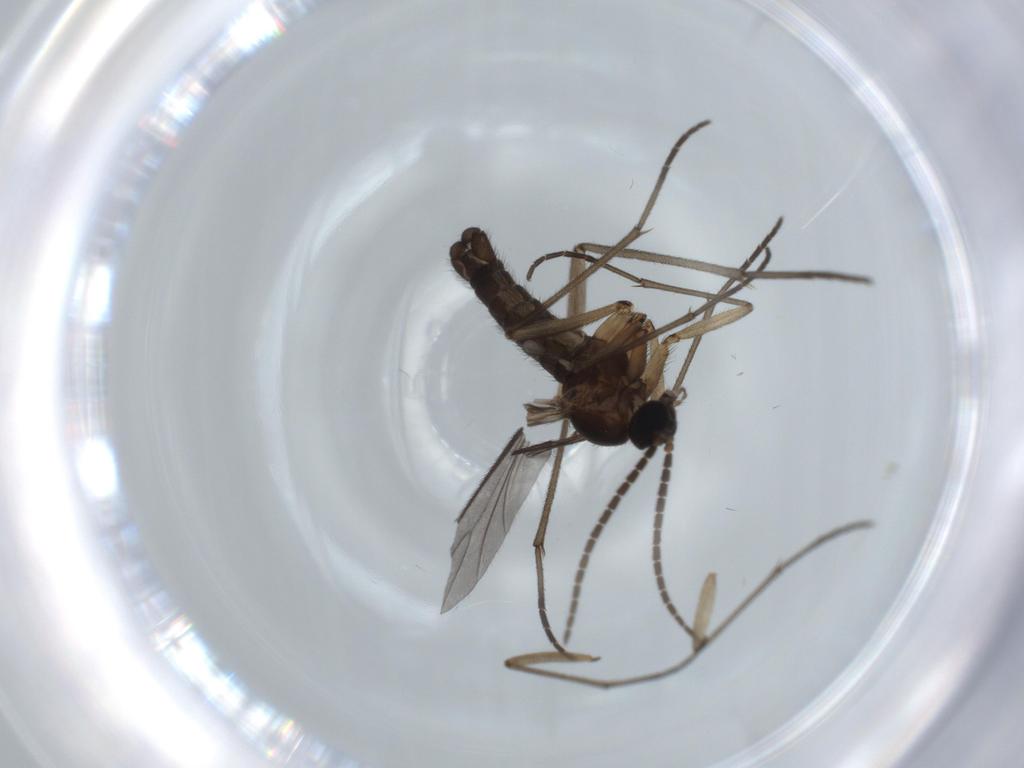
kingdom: Animalia
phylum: Arthropoda
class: Insecta
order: Diptera
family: Sciaridae
